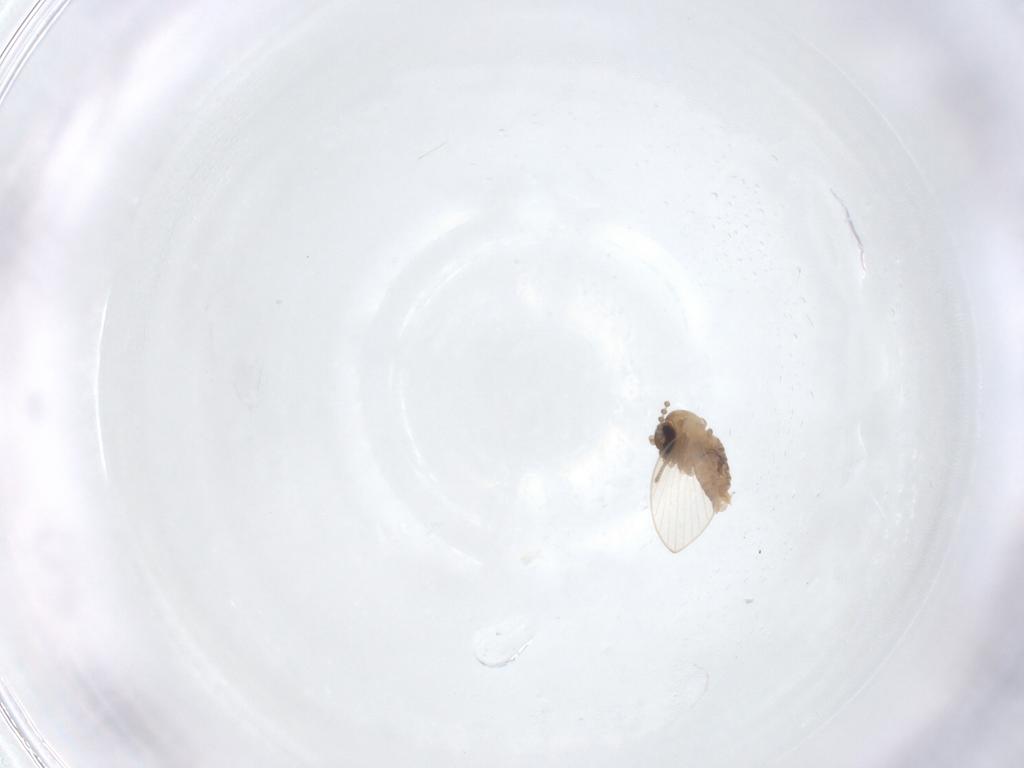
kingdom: Animalia
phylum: Arthropoda
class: Insecta
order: Diptera
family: Psychodidae
